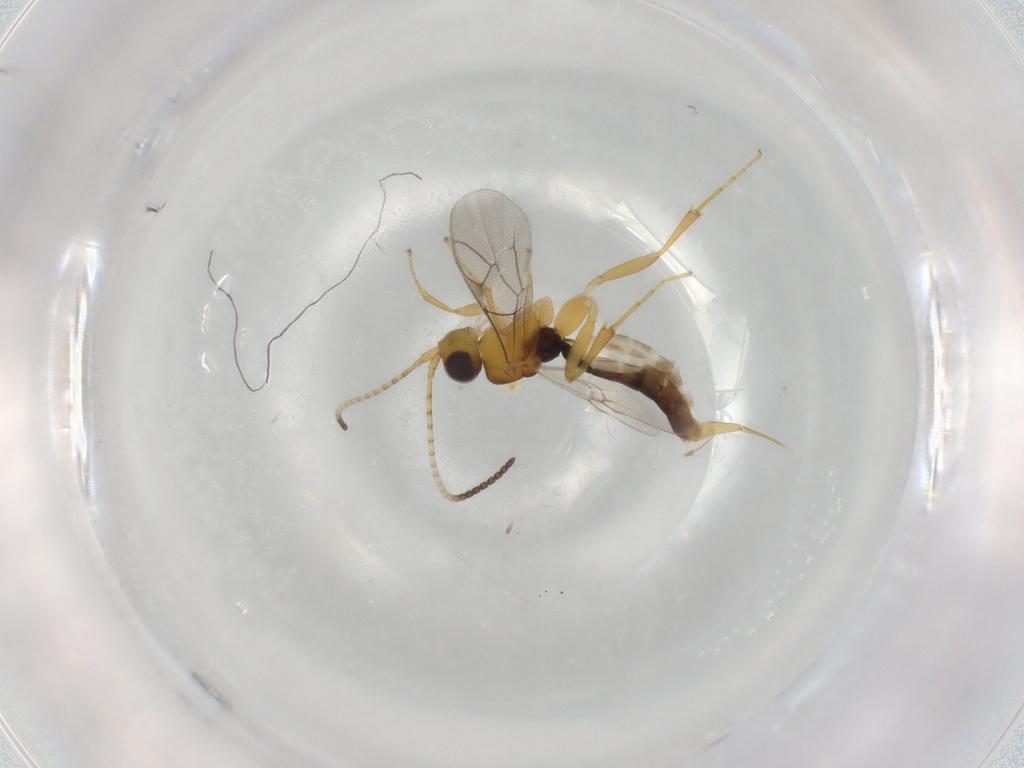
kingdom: Animalia
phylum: Arthropoda
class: Insecta
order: Hymenoptera
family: Ichneumonidae
